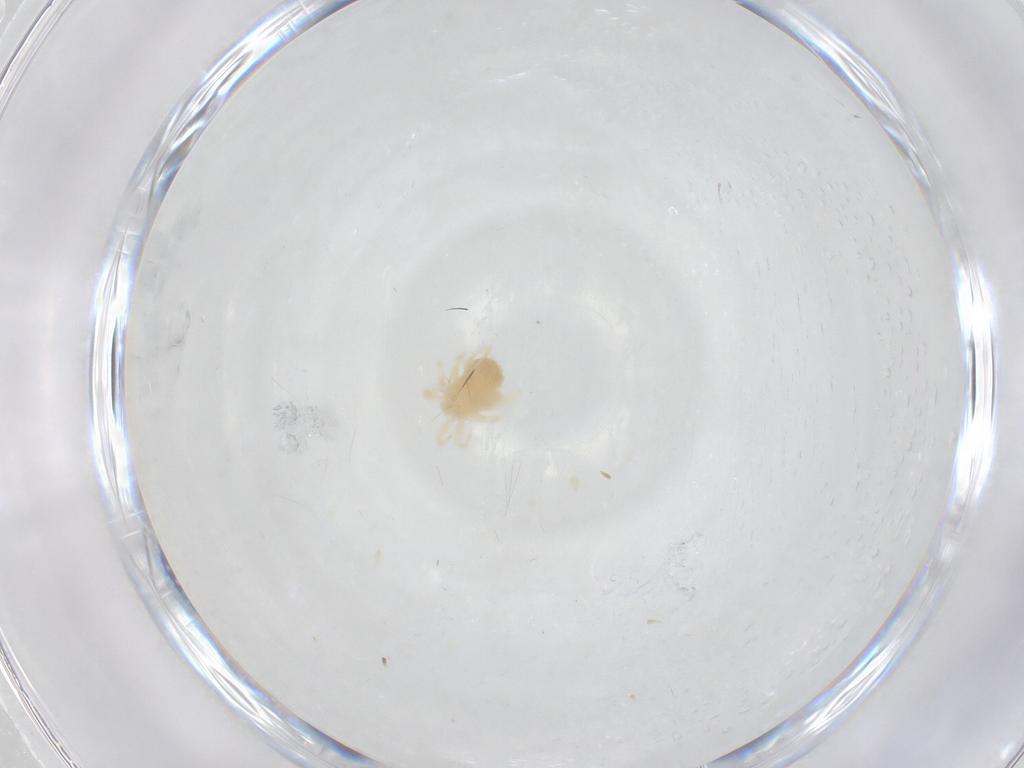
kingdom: Animalia
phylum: Arthropoda
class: Arachnida
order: Trombidiformes
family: Anystidae
